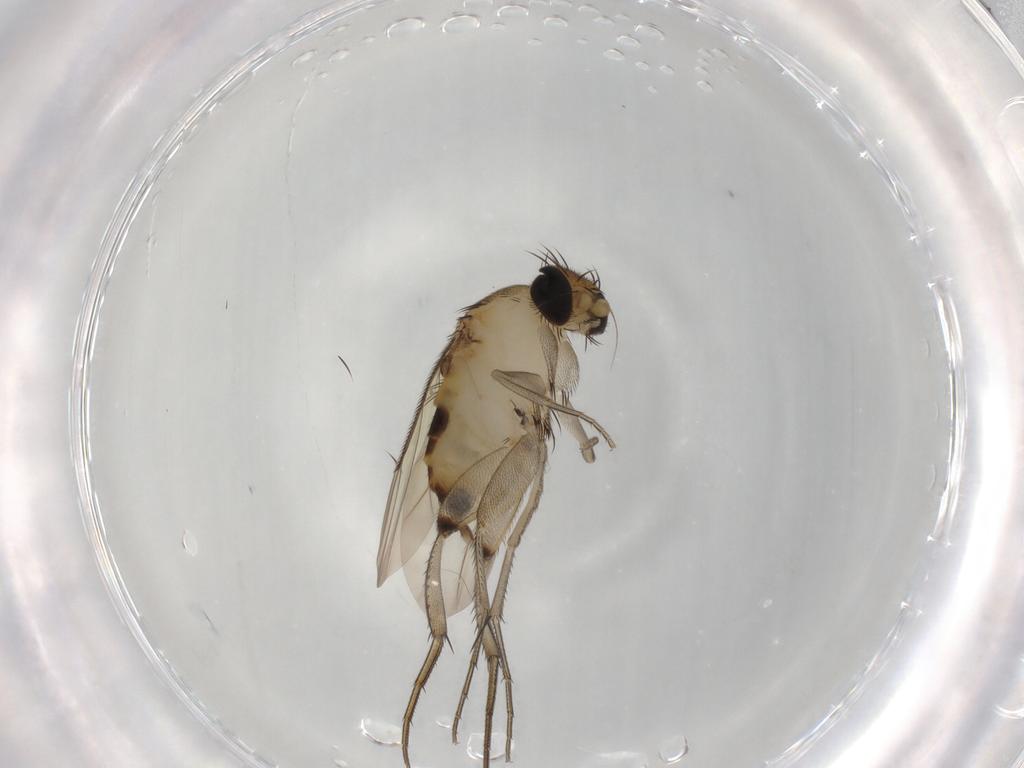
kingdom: Animalia
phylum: Arthropoda
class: Insecta
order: Diptera
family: Phoridae
